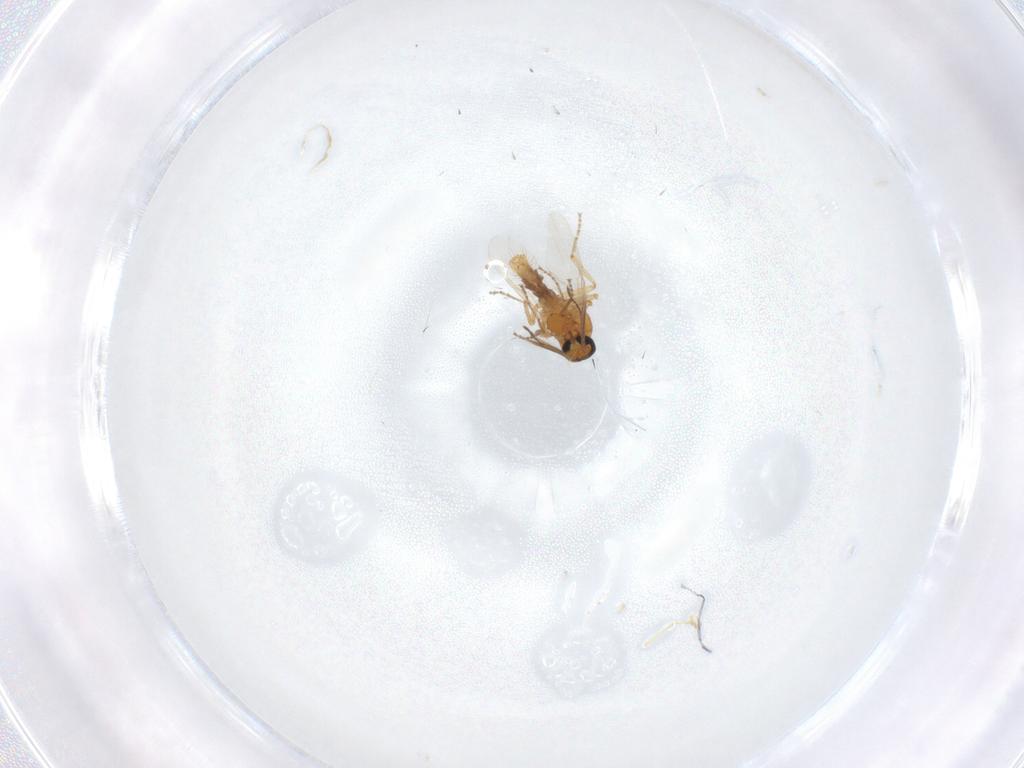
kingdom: Animalia
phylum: Arthropoda
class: Insecta
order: Diptera
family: Ceratopogonidae
